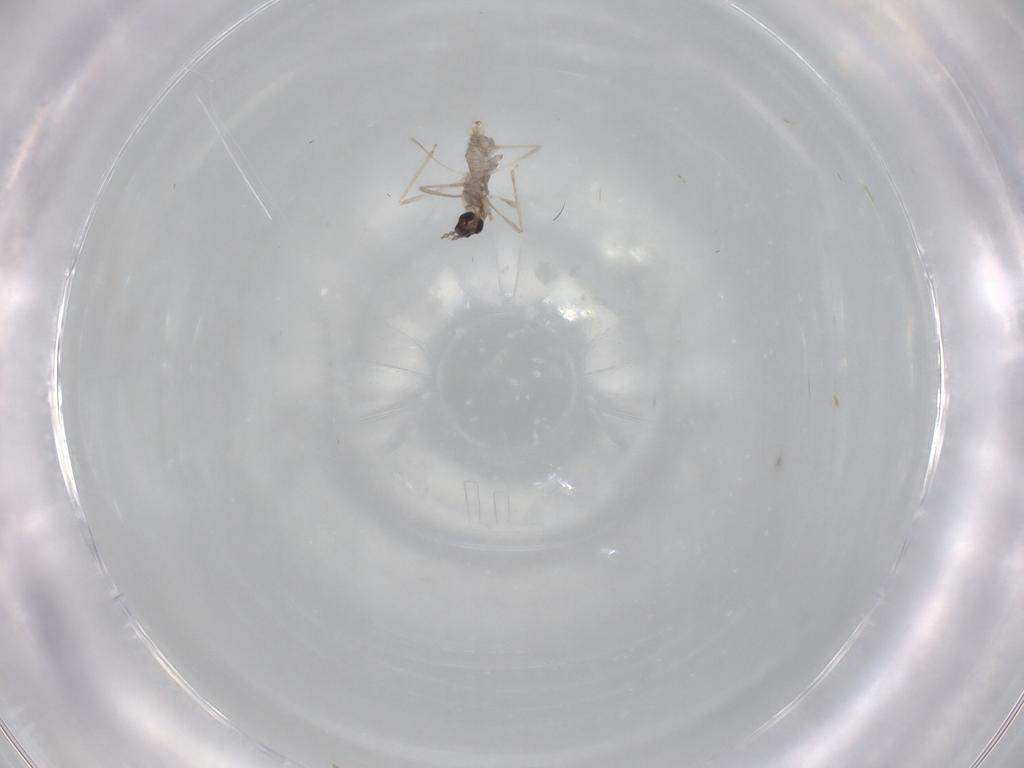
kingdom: Animalia
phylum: Arthropoda
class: Insecta
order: Diptera
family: Cecidomyiidae
